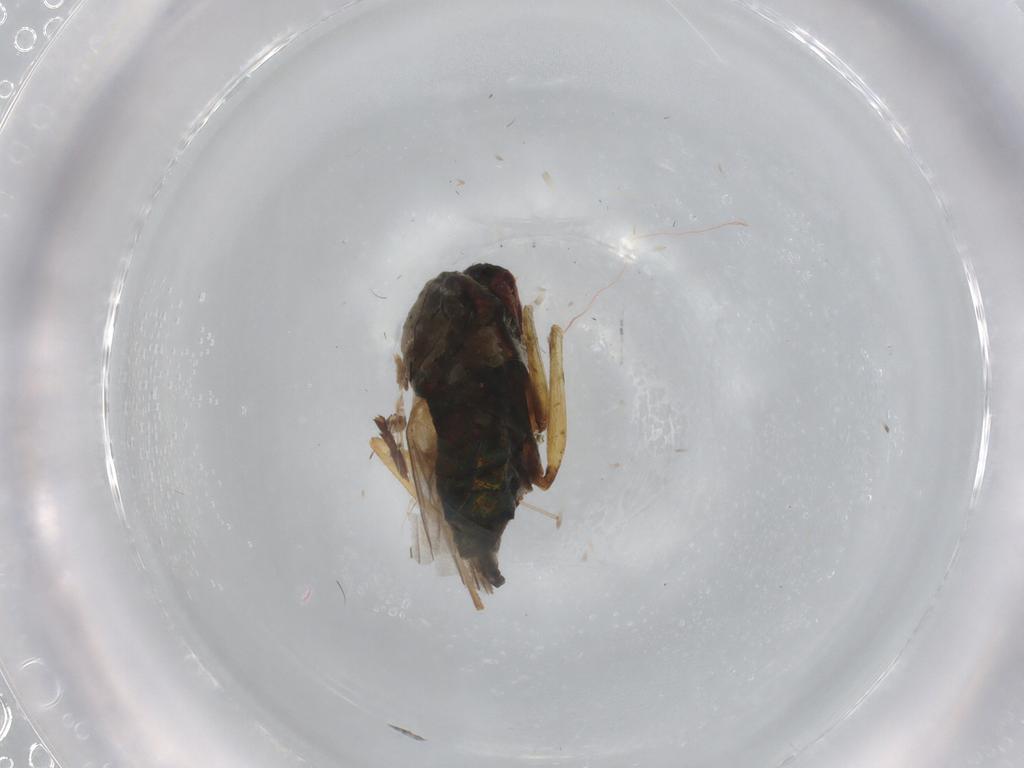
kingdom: Animalia
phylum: Arthropoda
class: Insecta
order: Diptera
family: Dolichopodidae
